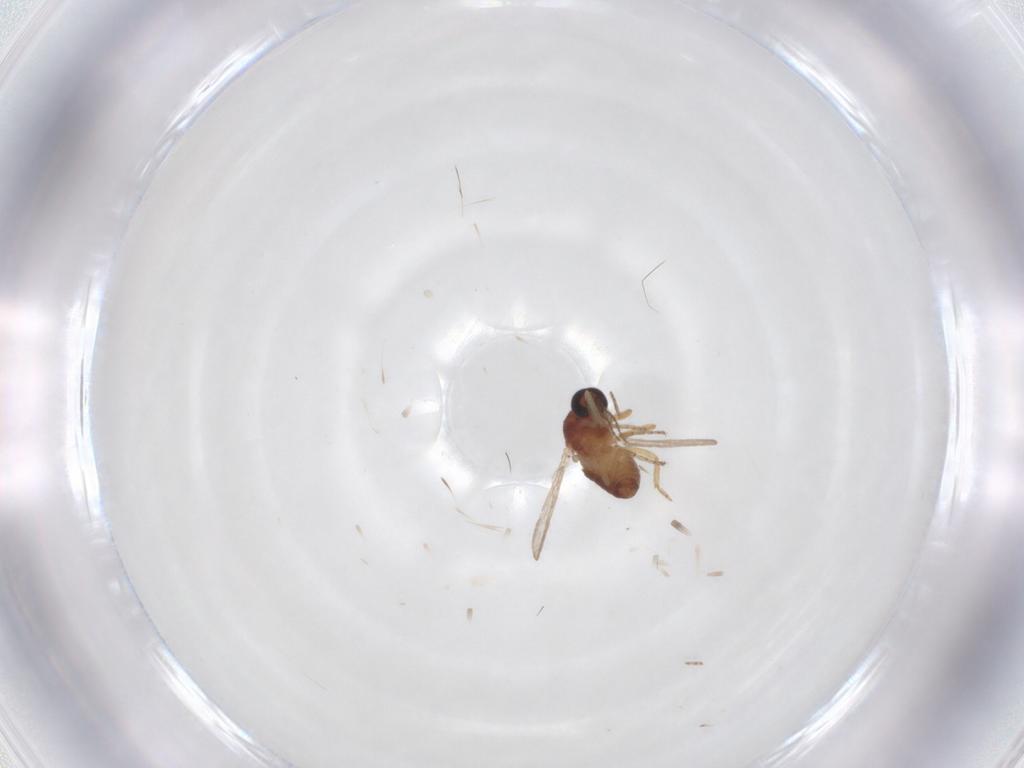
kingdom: Animalia
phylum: Arthropoda
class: Insecta
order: Diptera
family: Ceratopogonidae
